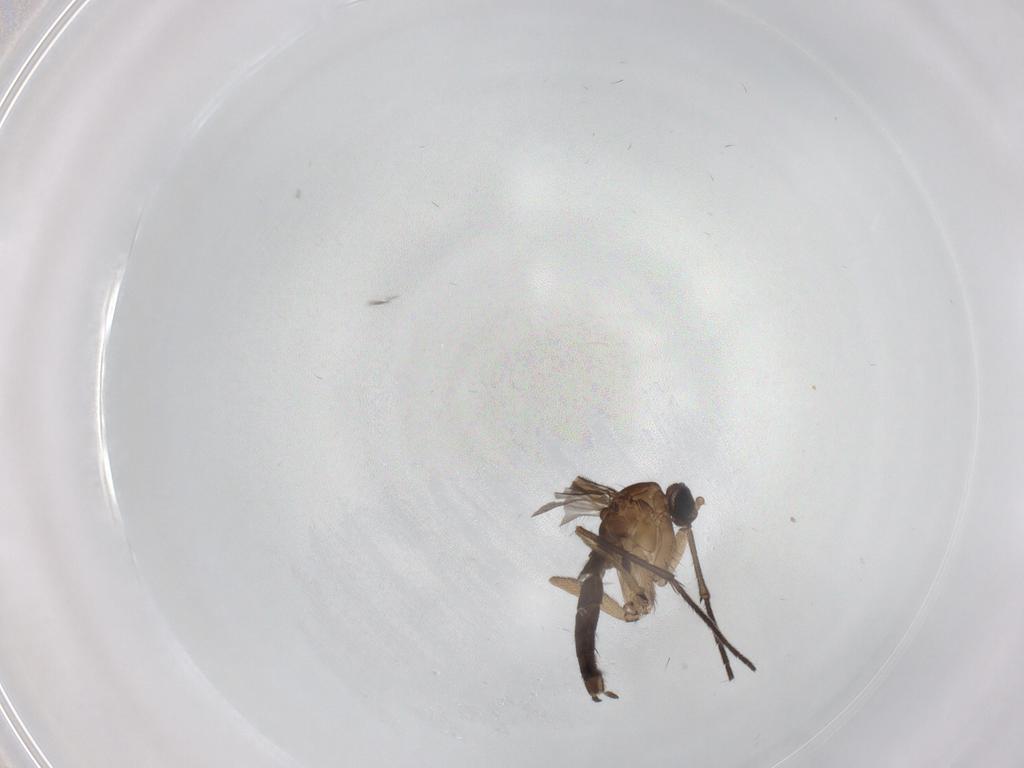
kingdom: Animalia
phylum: Arthropoda
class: Insecta
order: Diptera
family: Sciaridae
